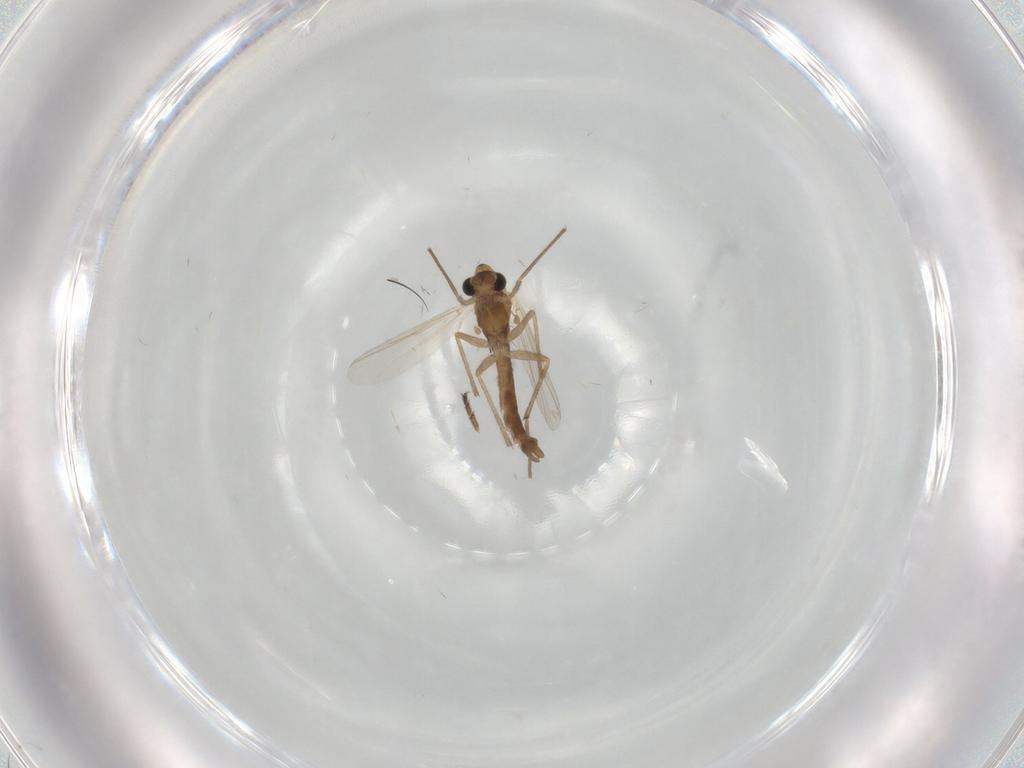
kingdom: Animalia
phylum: Arthropoda
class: Insecta
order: Diptera
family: Chironomidae
